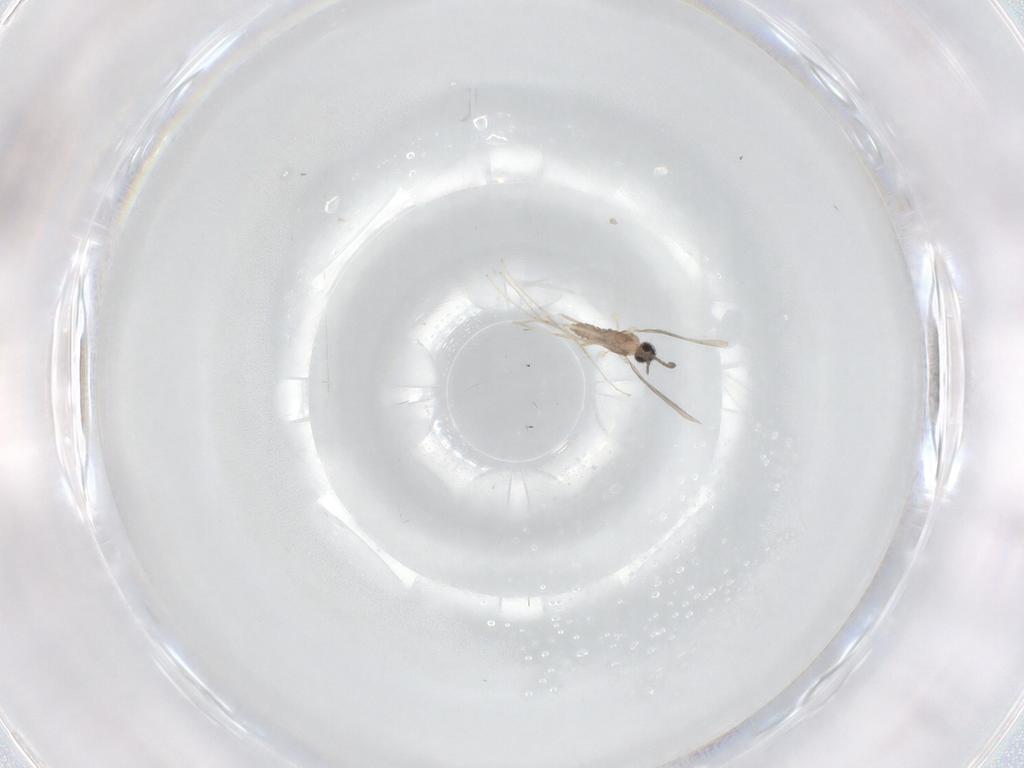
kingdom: Animalia
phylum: Arthropoda
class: Insecta
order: Diptera
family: Cecidomyiidae
